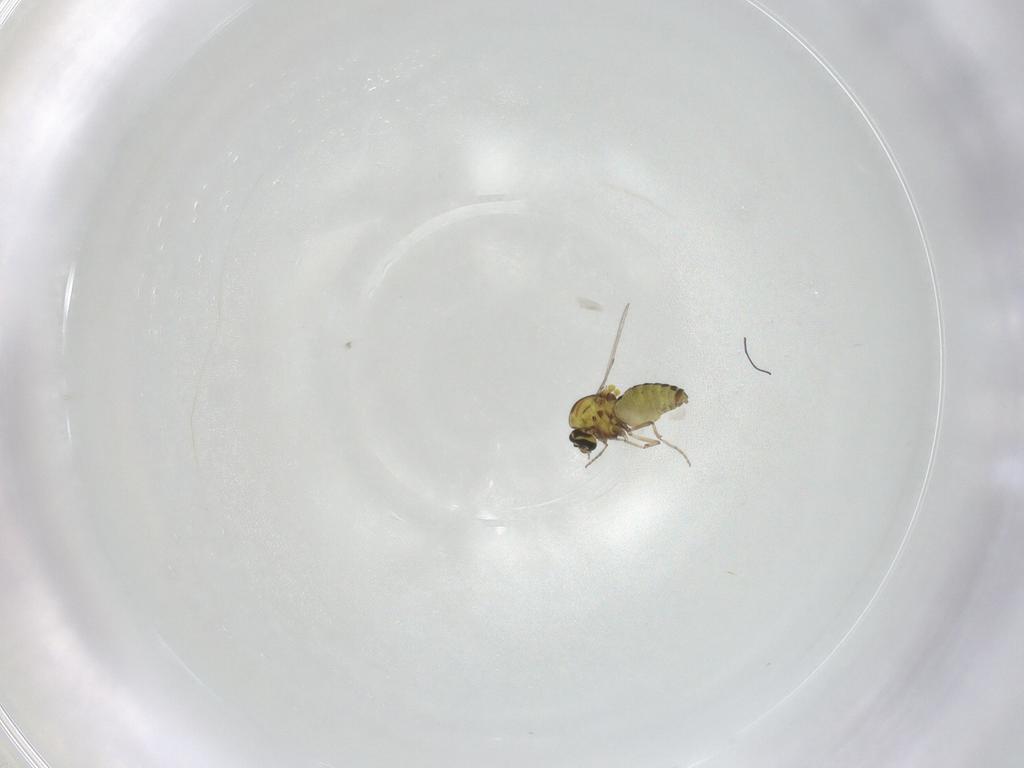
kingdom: Animalia
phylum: Arthropoda
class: Insecta
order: Diptera
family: Ceratopogonidae
